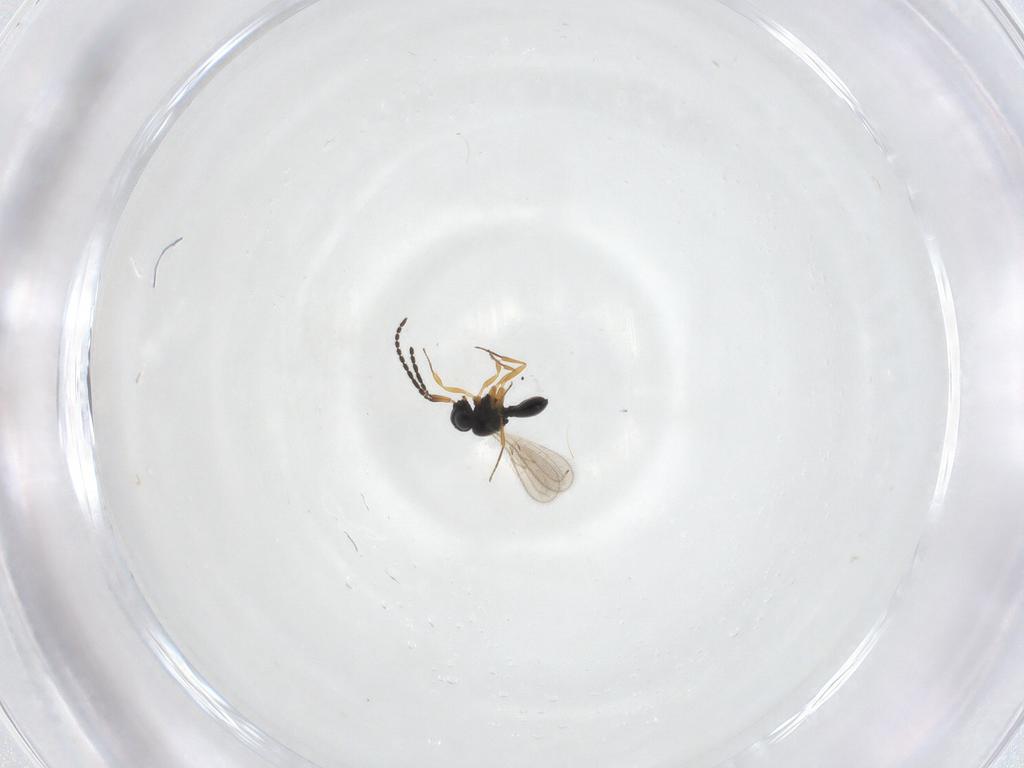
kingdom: Animalia
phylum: Arthropoda
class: Insecta
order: Hymenoptera
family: Scelionidae
